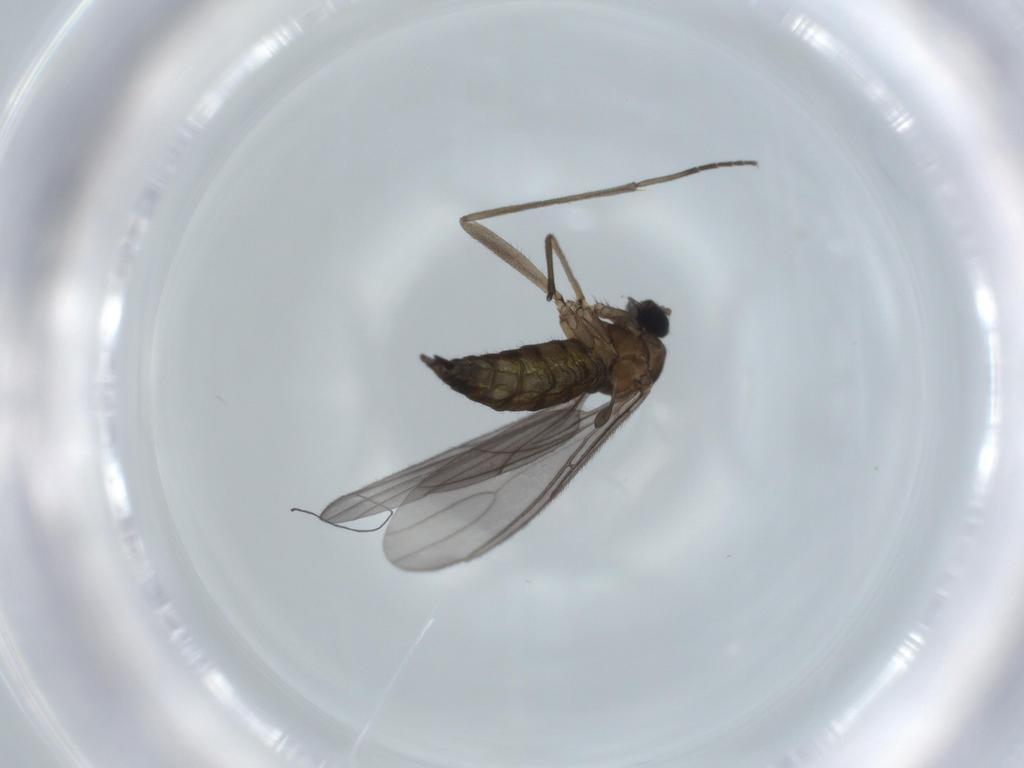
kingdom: Animalia
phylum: Arthropoda
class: Insecta
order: Diptera
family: Sciaridae
